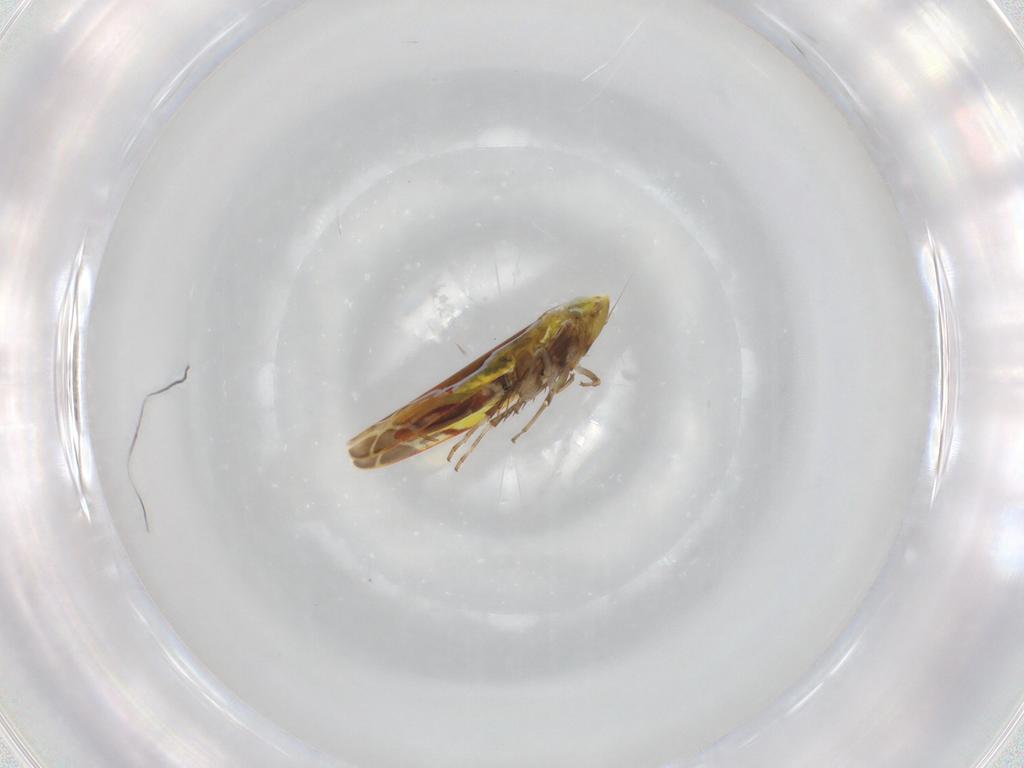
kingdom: Animalia
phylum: Arthropoda
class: Insecta
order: Hemiptera
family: Cicadellidae
